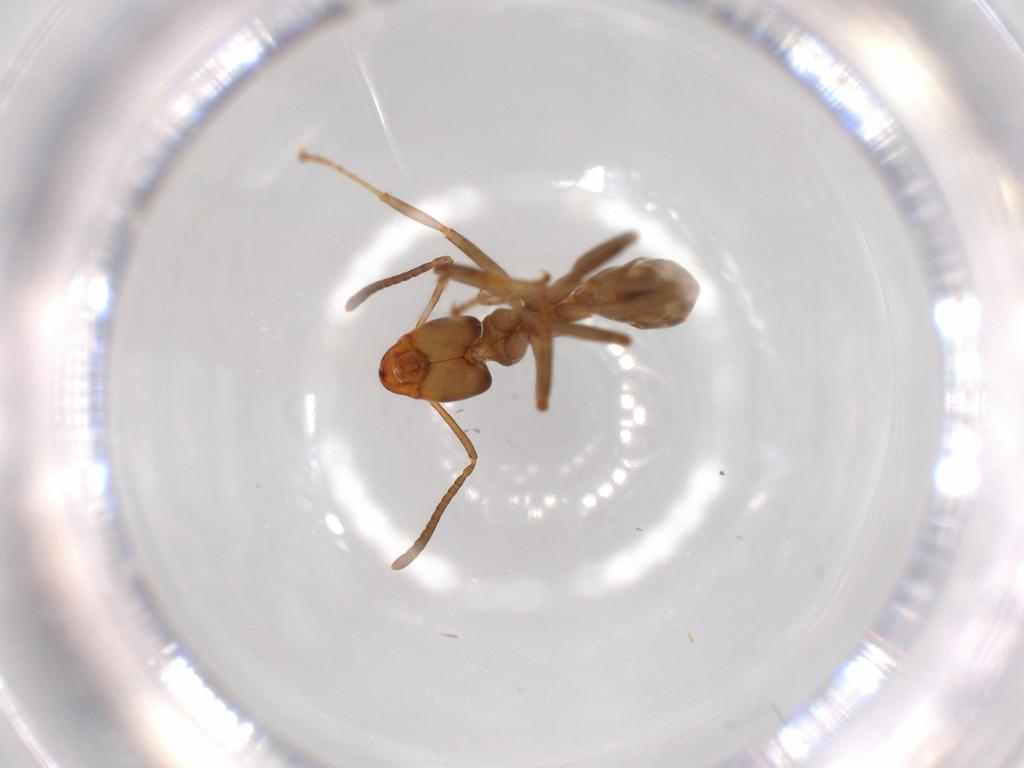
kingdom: Animalia
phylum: Arthropoda
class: Insecta
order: Hymenoptera
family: Formicidae
